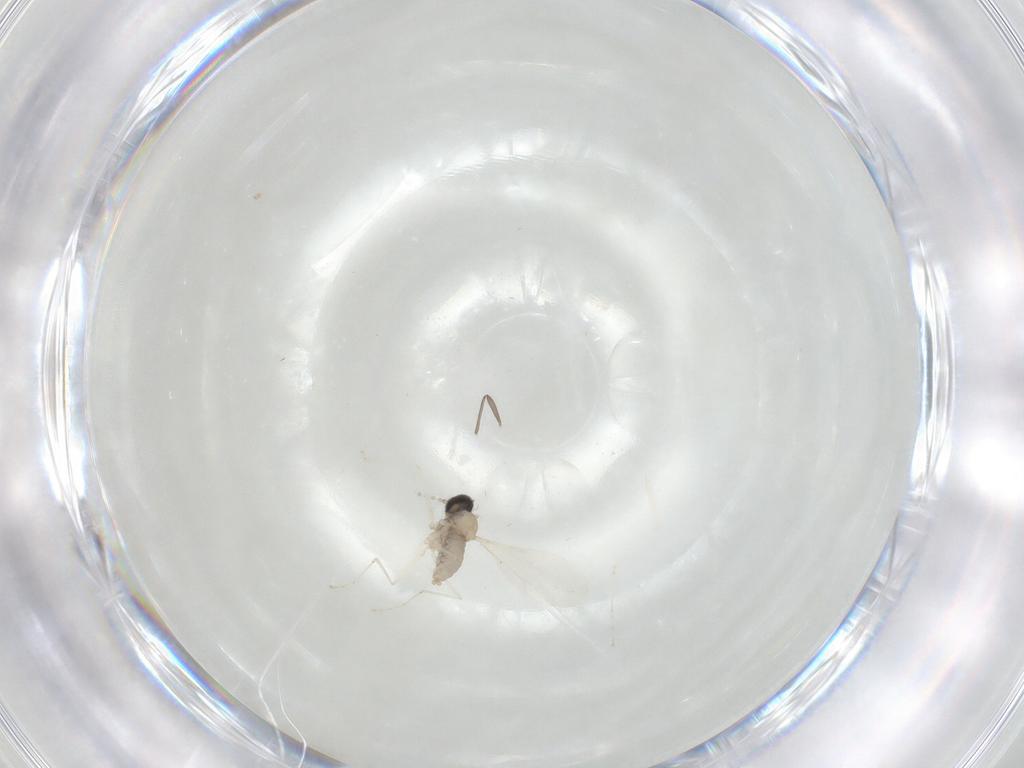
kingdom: Animalia
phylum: Arthropoda
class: Insecta
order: Diptera
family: Cecidomyiidae
